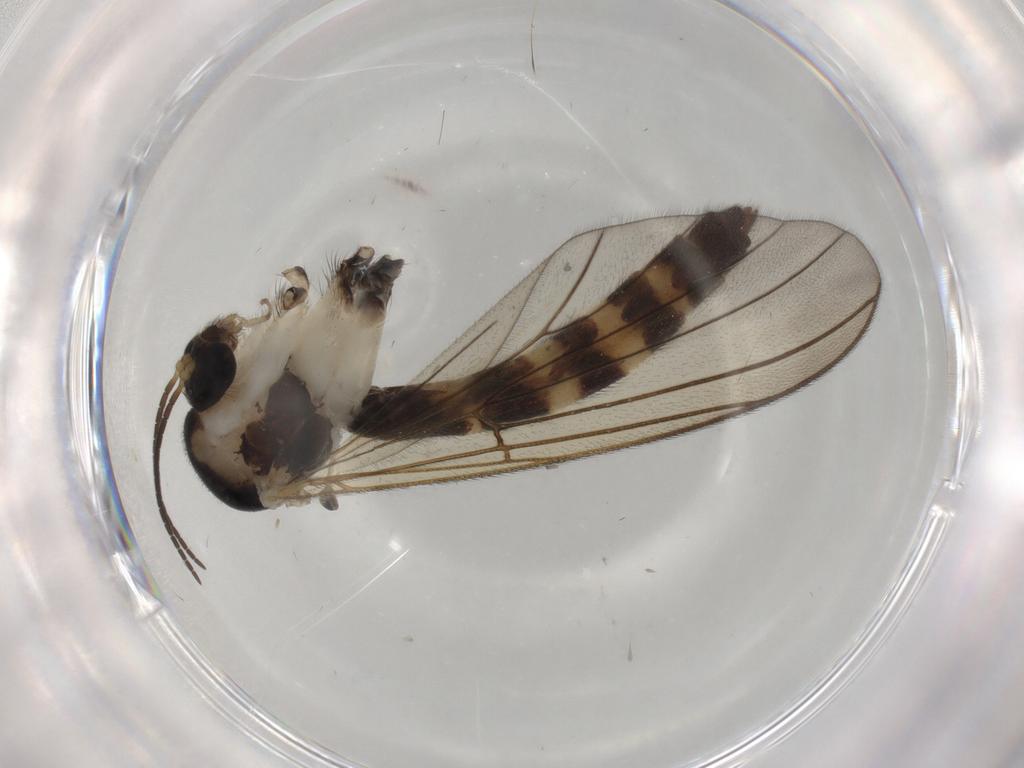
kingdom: Animalia
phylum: Arthropoda
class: Insecta
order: Diptera
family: Sciaridae
